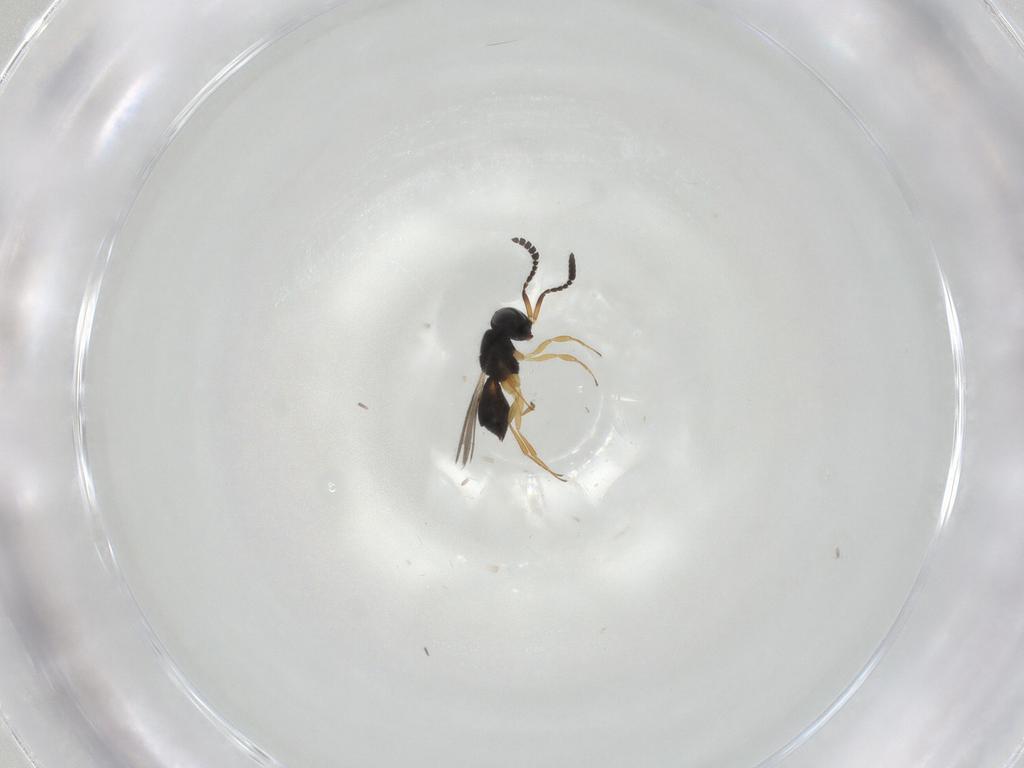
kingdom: Animalia
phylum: Arthropoda
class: Insecta
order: Hymenoptera
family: Scelionidae
